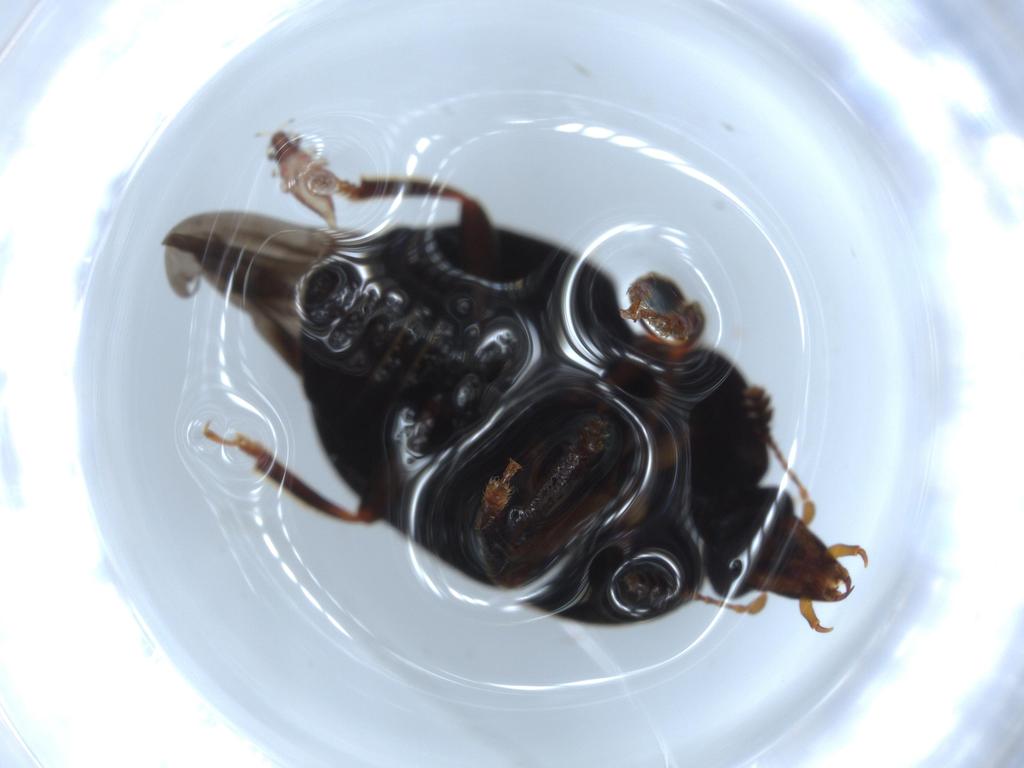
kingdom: Animalia
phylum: Arthropoda
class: Insecta
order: Coleoptera
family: Chrysomelidae
